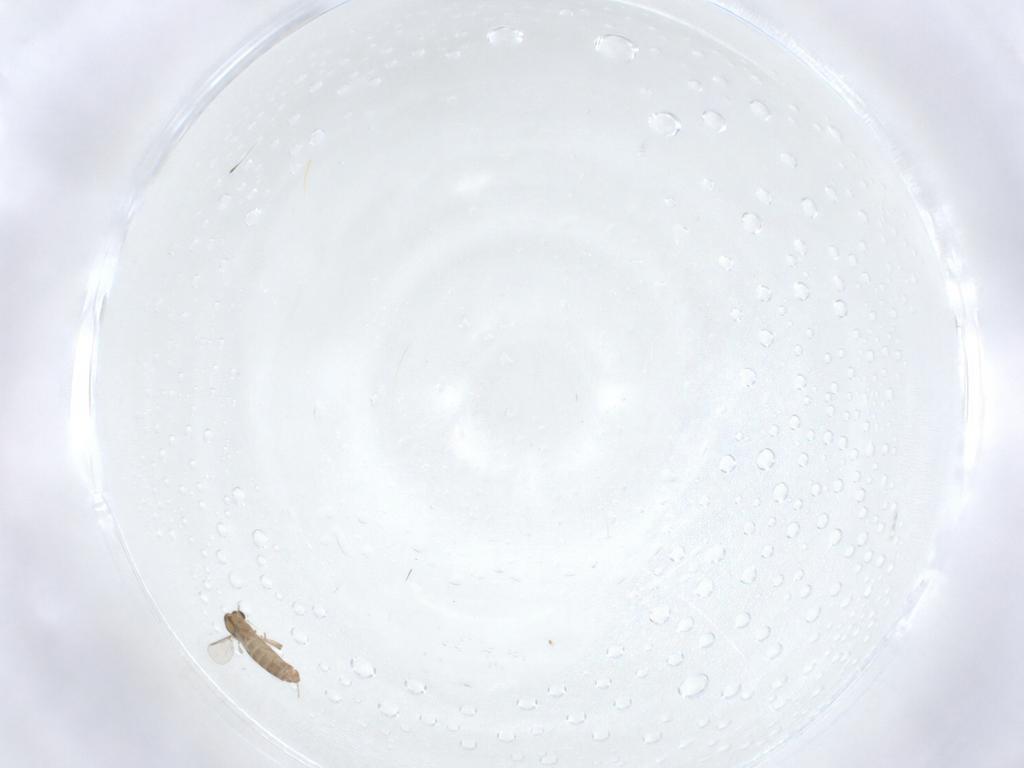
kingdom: Animalia
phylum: Arthropoda
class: Insecta
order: Diptera
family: Chironomidae
